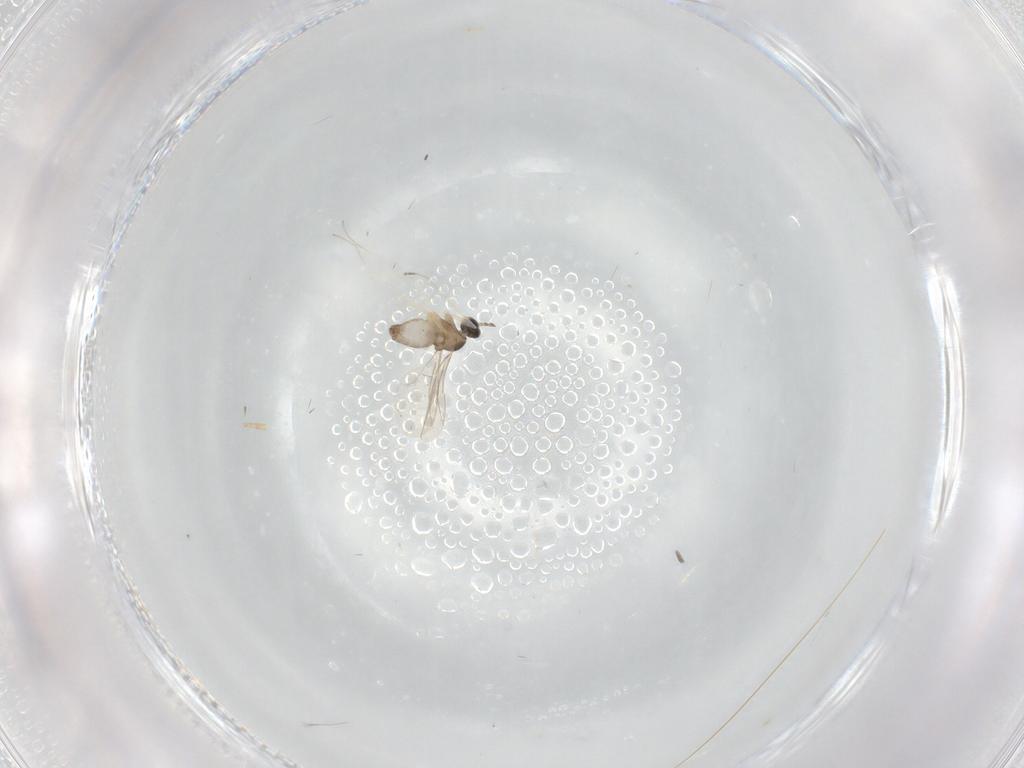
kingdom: Animalia
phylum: Arthropoda
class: Insecta
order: Diptera
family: Cecidomyiidae
